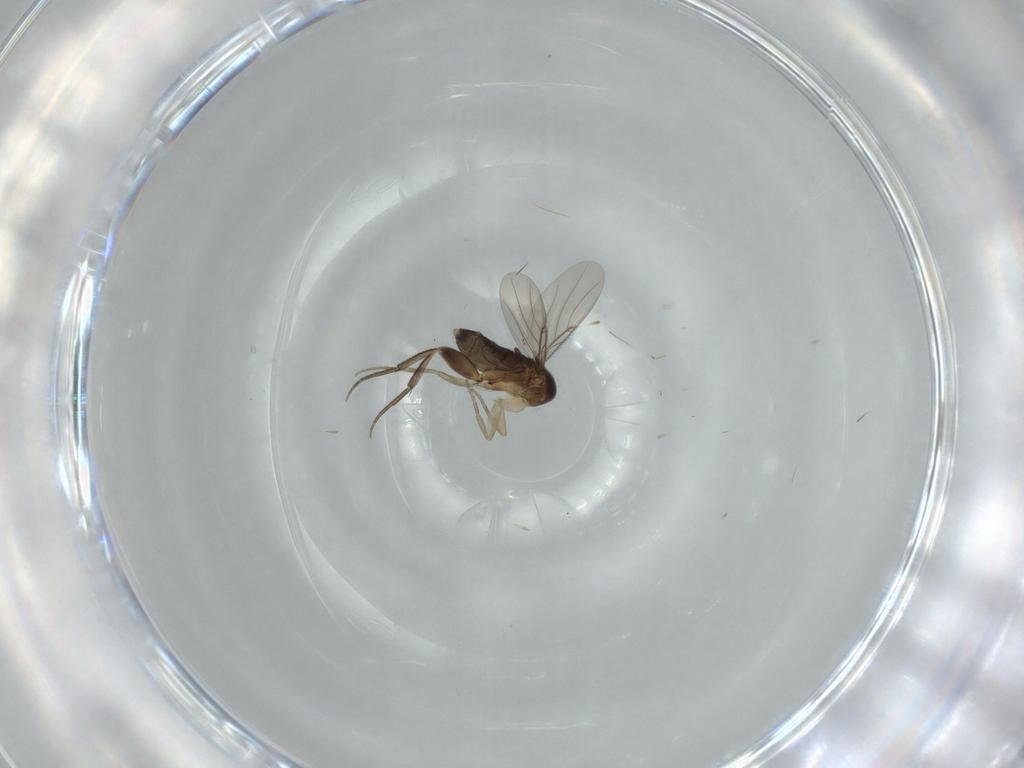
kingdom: Animalia
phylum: Arthropoda
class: Insecta
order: Diptera
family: Phoridae
